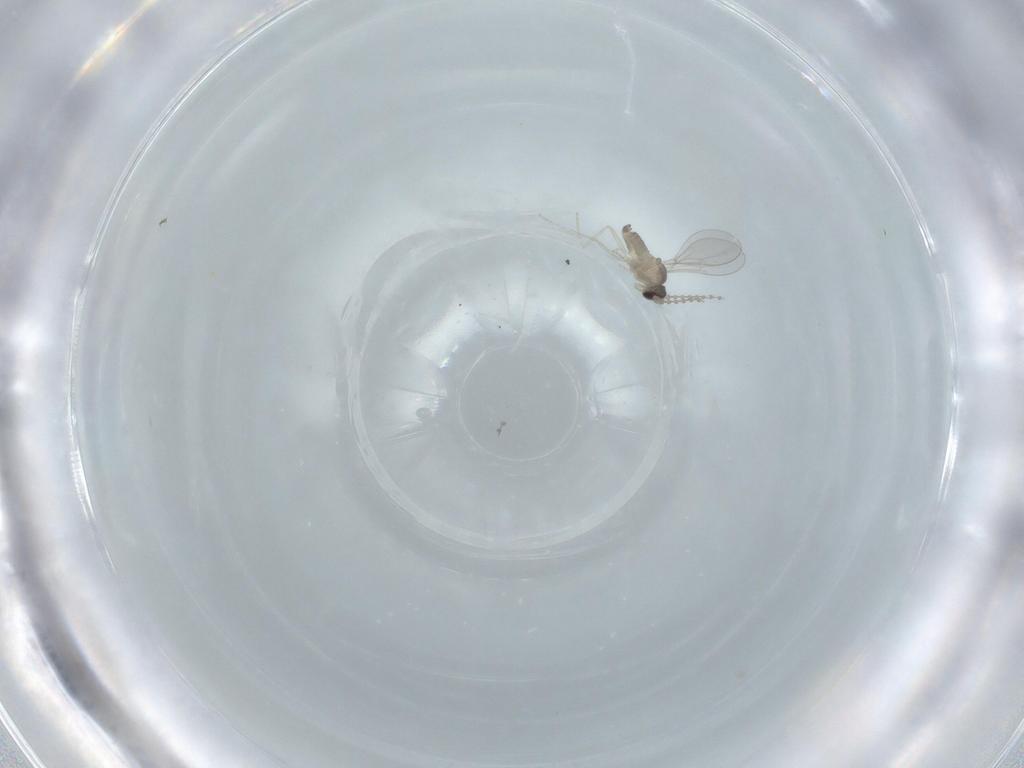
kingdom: Animalia
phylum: Arthropoda
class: Insecta
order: Diptera
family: Cecidomyiidae
